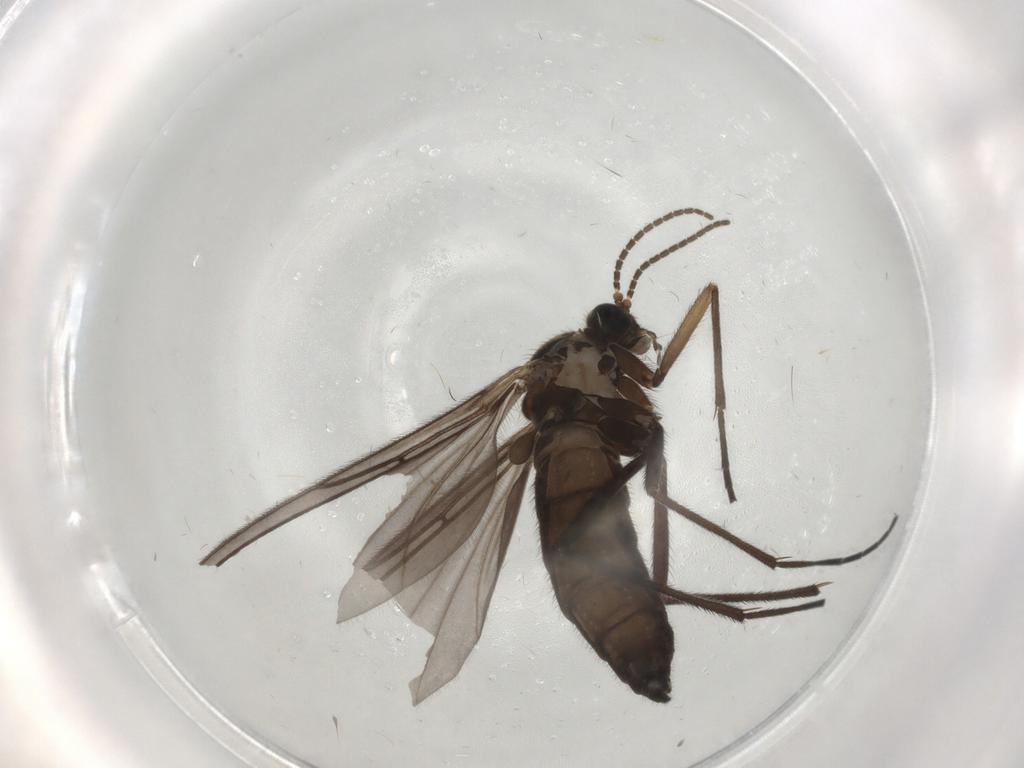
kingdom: Animalia
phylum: Arthropoda
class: Insecta
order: Diptera
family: Sciaridae
